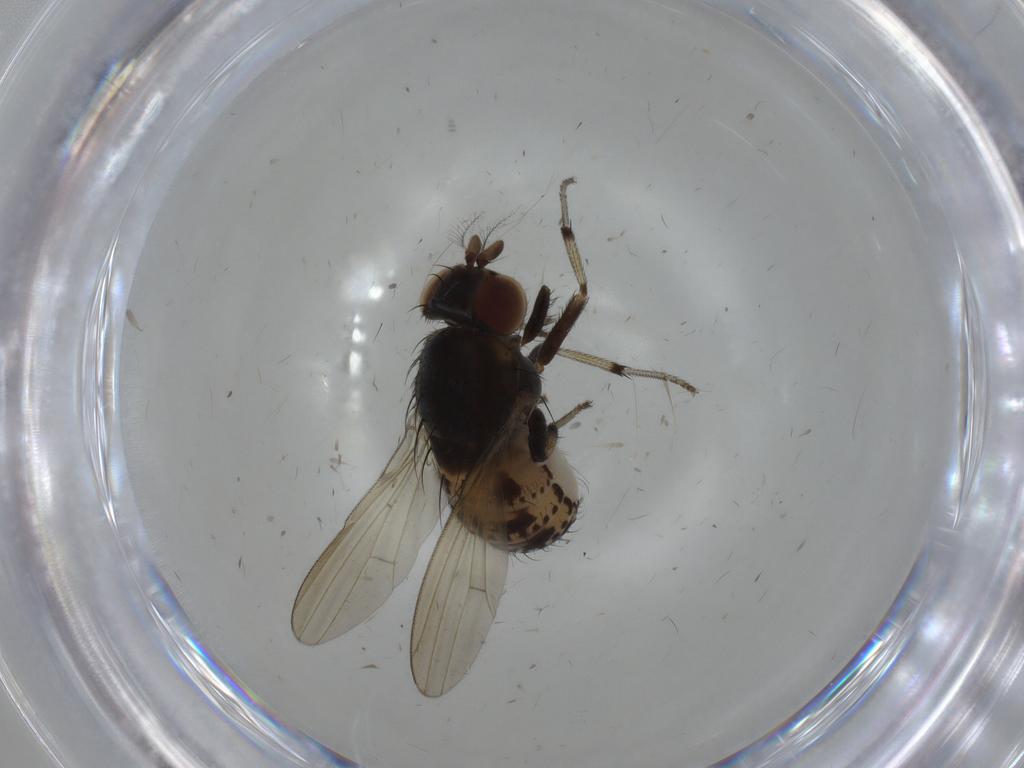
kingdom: Animalia
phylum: Arthropoda
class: Insecta
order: Diptera
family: Cecidomyiidae
